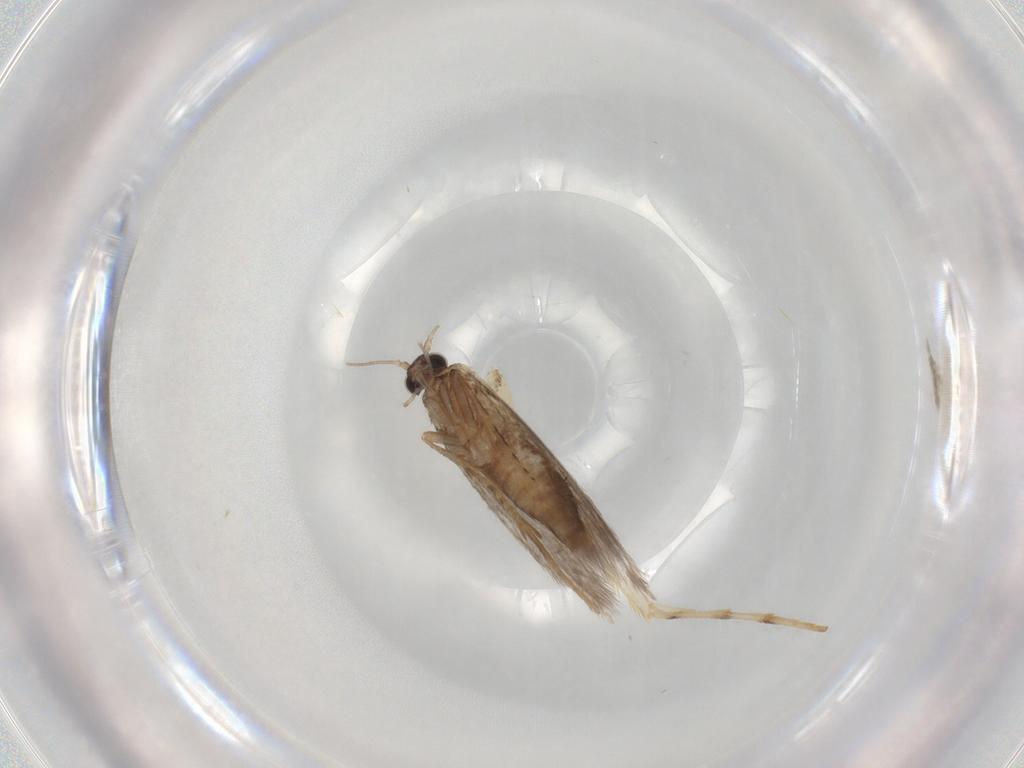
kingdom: Animalia
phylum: Arthropoda
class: Insecta
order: Lepidoptera
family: Gracillariidae
